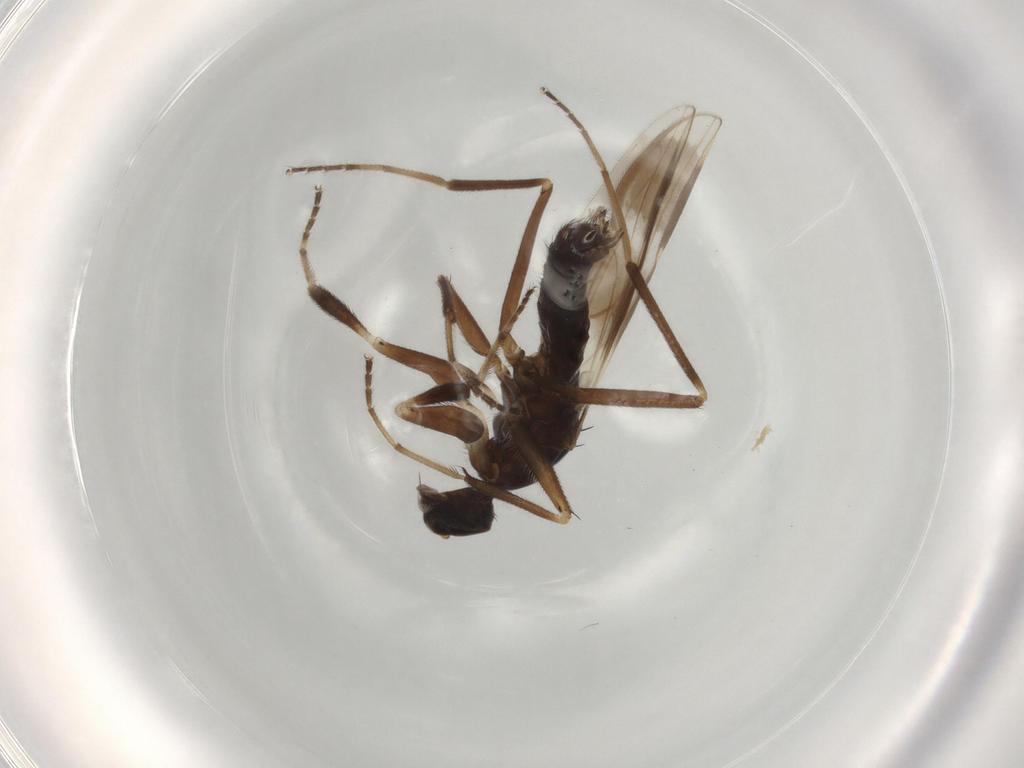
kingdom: Animalia
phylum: Arthropoda
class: Insecta
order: Diptera
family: Hybotidae
